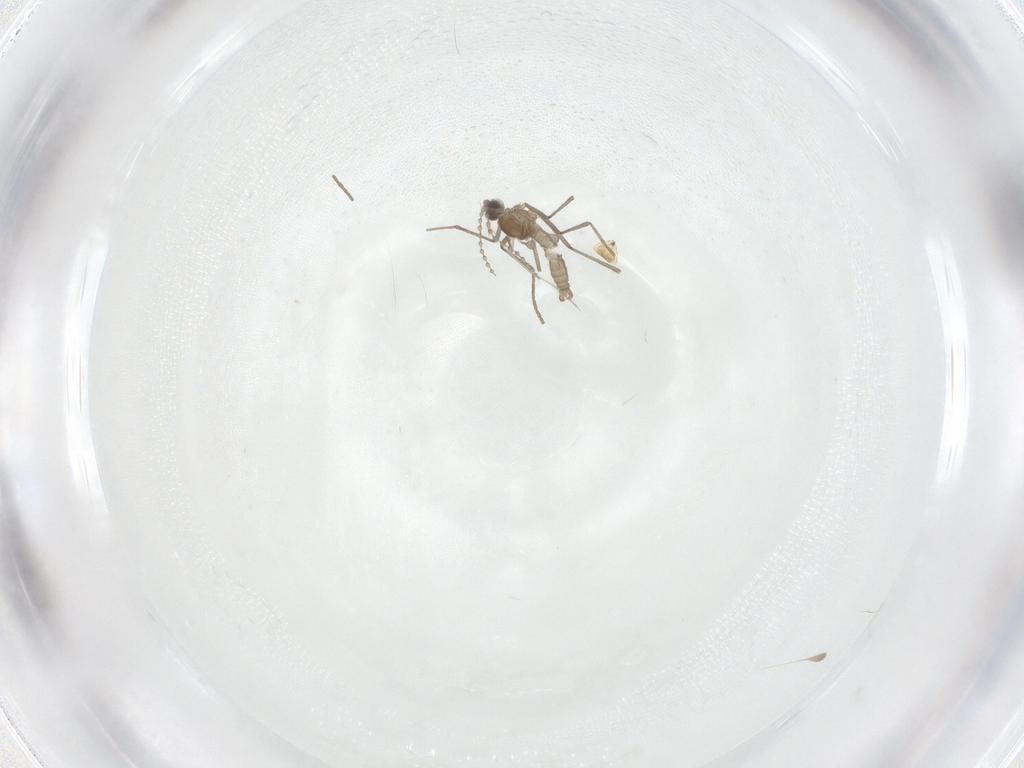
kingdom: Animalia
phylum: Arthropoda
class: Insecta
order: Diptera
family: Cecidomyiidae
